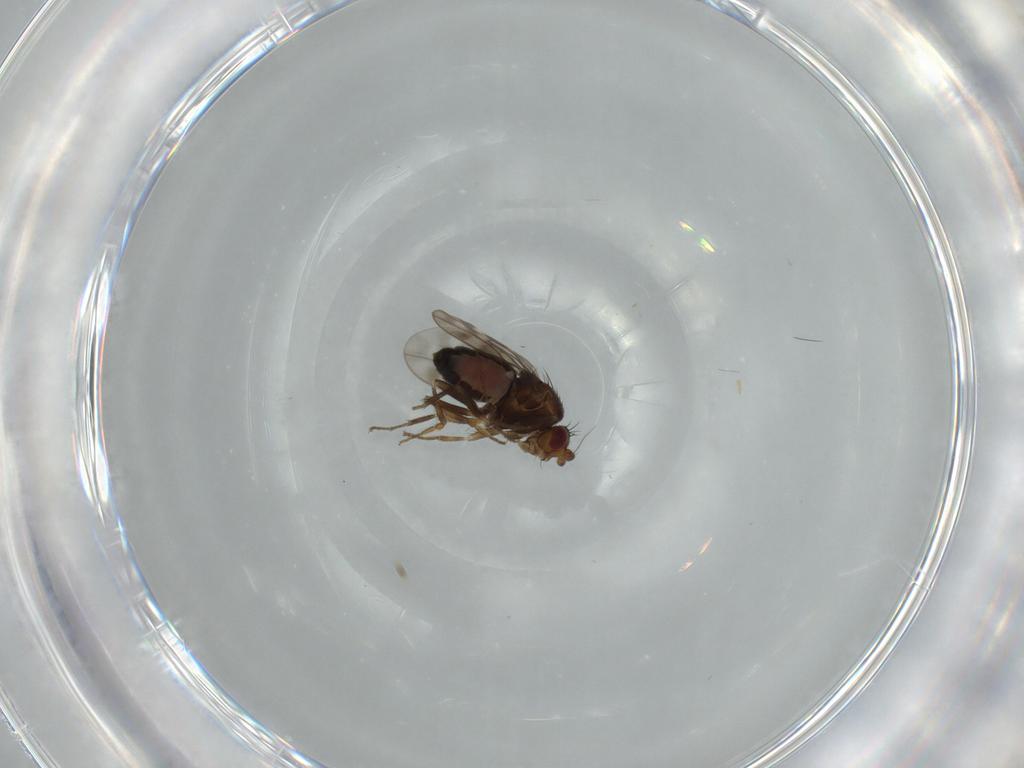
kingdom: Animalia
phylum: Arthropoda
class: Insecta
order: Diptera
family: Sphaeroceridae
